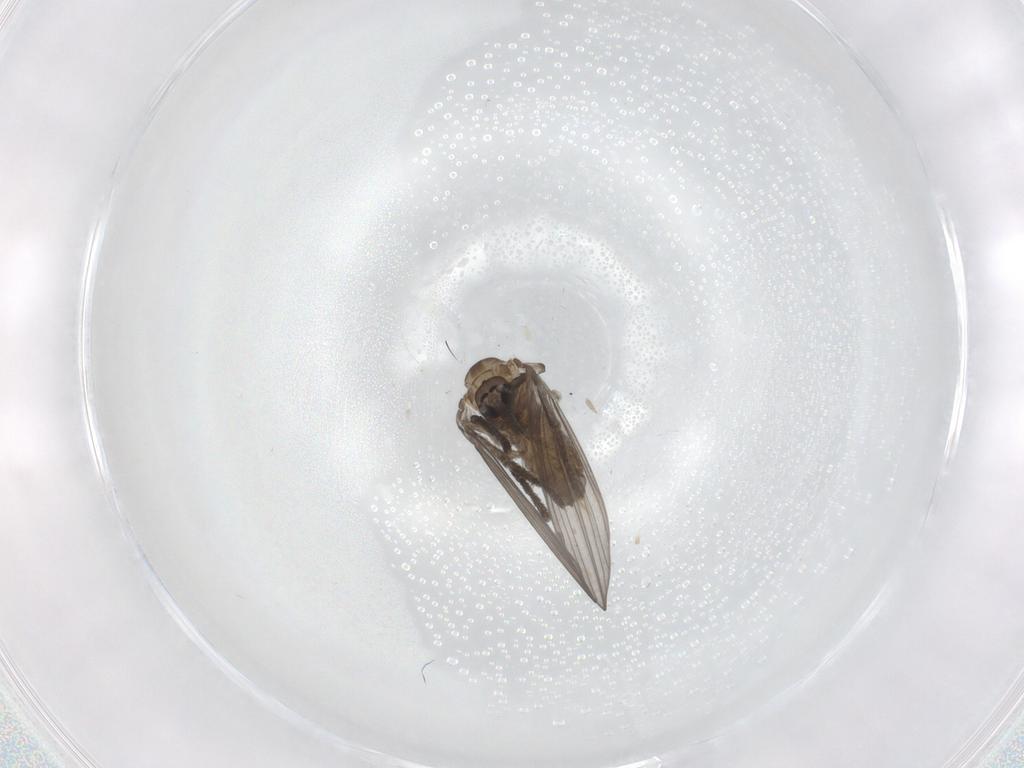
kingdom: Animalia
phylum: Arthropoda
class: Insecta
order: Diptera
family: Psychodidae
